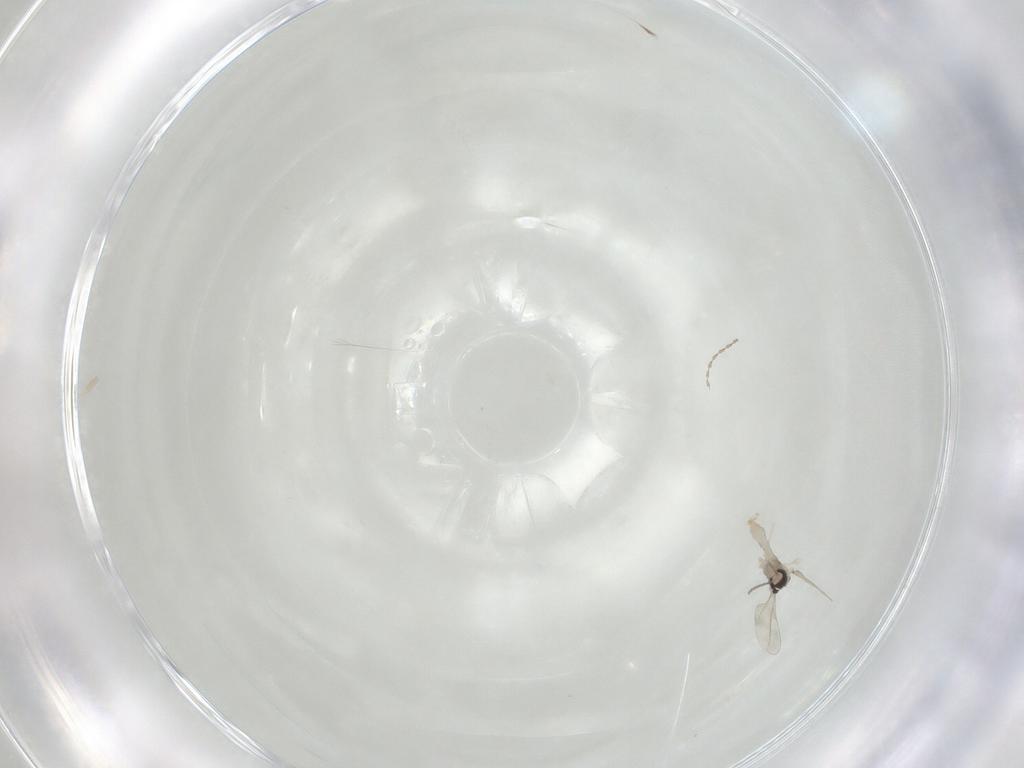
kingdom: Animalia
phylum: Arthropoda
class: Insecta
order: Diptera
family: Cecidomyiidae
